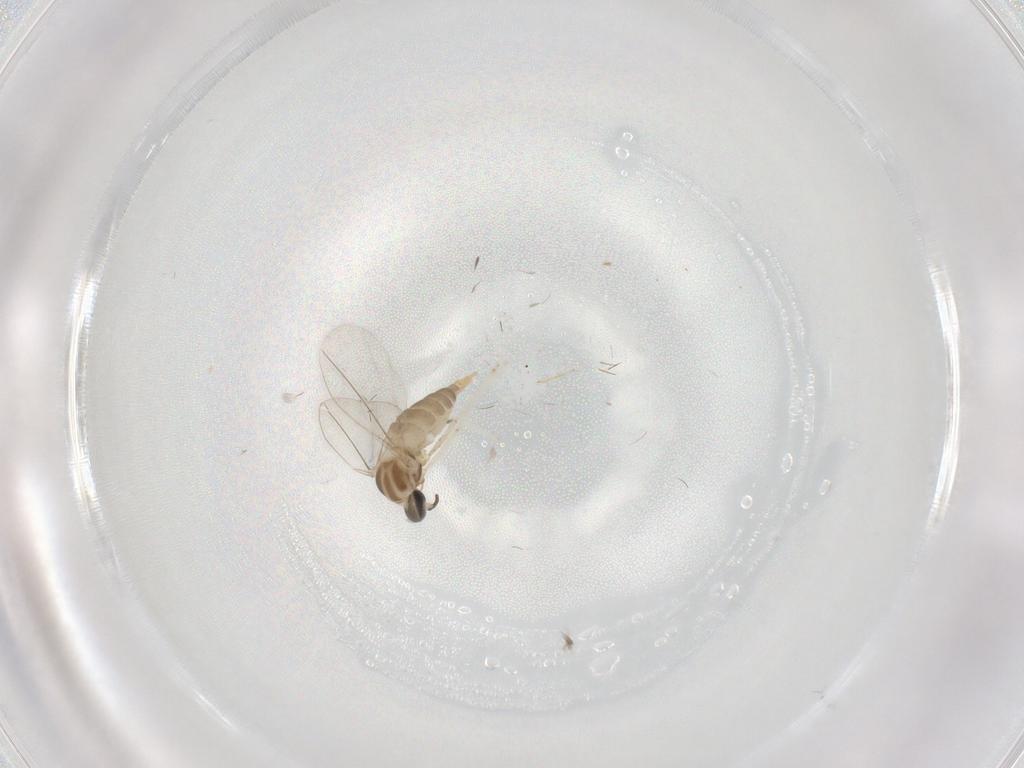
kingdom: Animalia
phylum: Arthropoda
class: Insecta
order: Diptera
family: Cecidomyiidae
